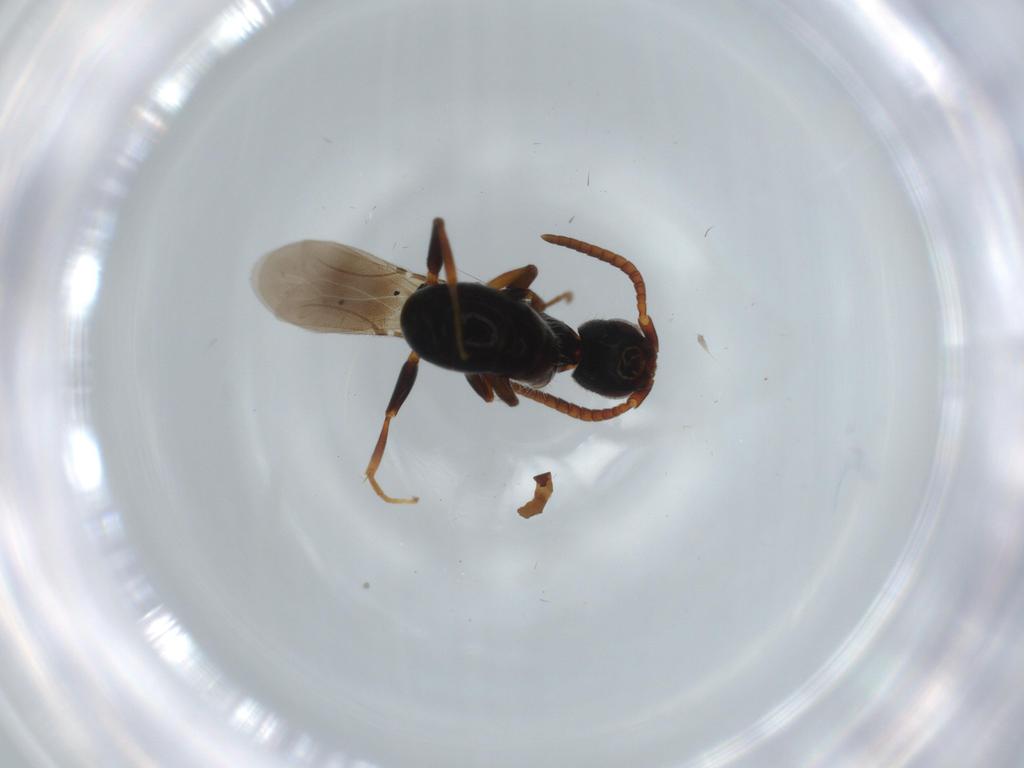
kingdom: Animalia
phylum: Arthropoda
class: Insecta
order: Hymenoptera
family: Bethylidae
